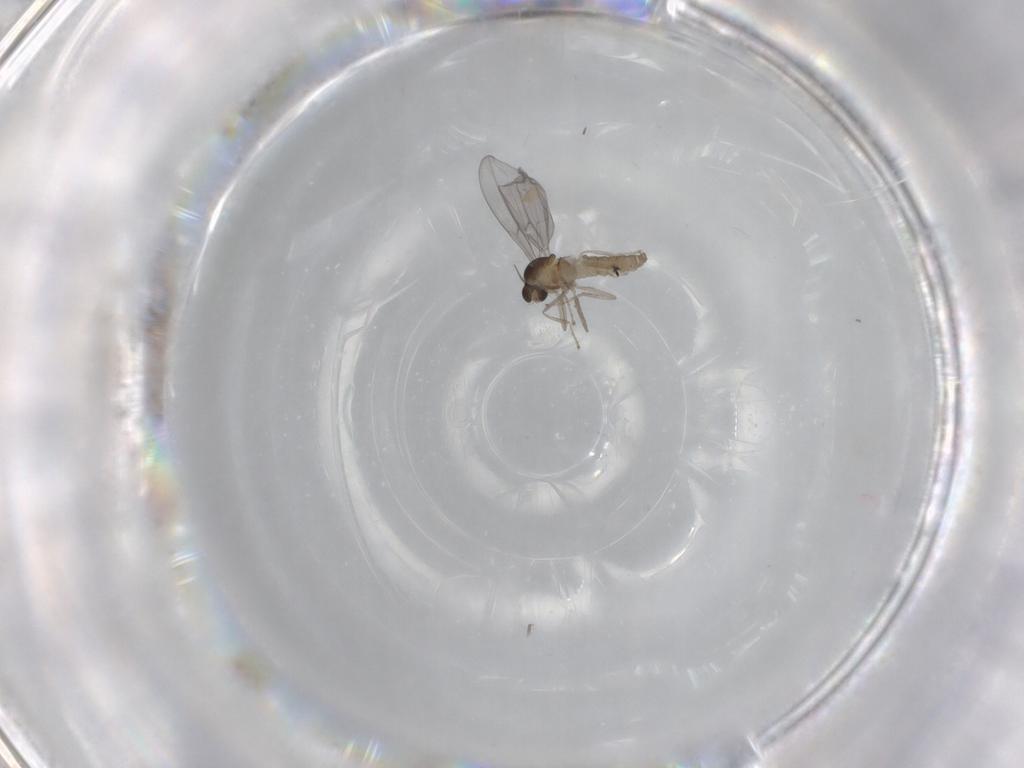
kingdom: Animalia
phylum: Arthropoda
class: Insecta
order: Diptera
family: Cecidomyiidae
